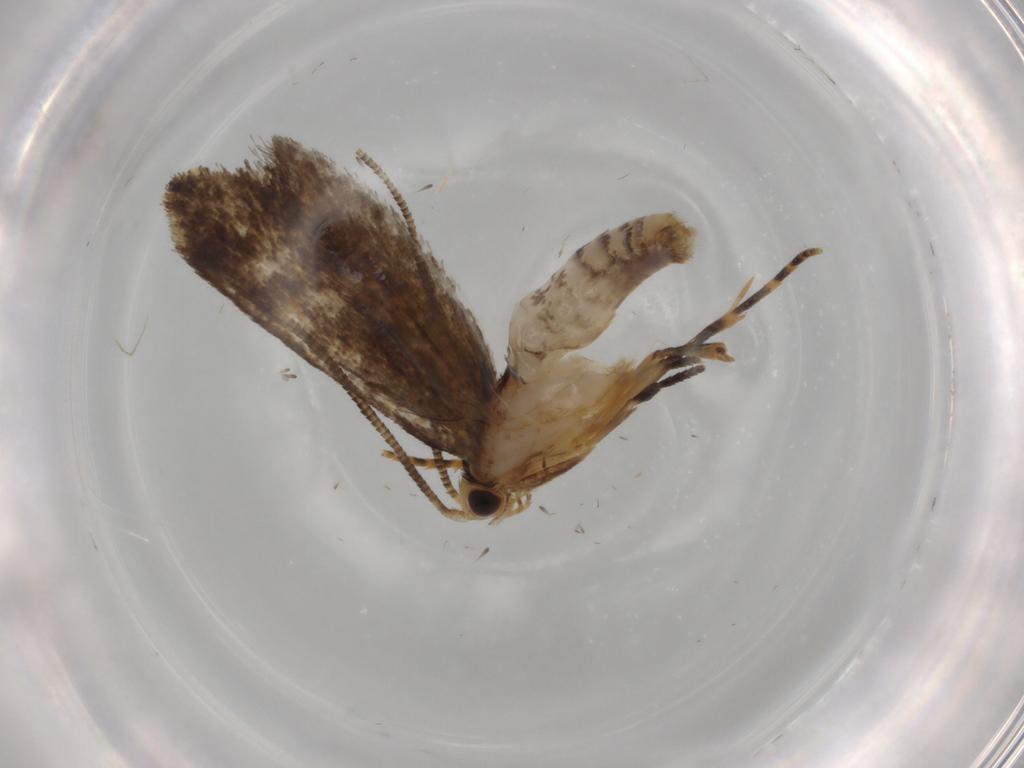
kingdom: Animalia
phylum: Arthropoda
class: Insecta
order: Lepidoptera
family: Tineidae
